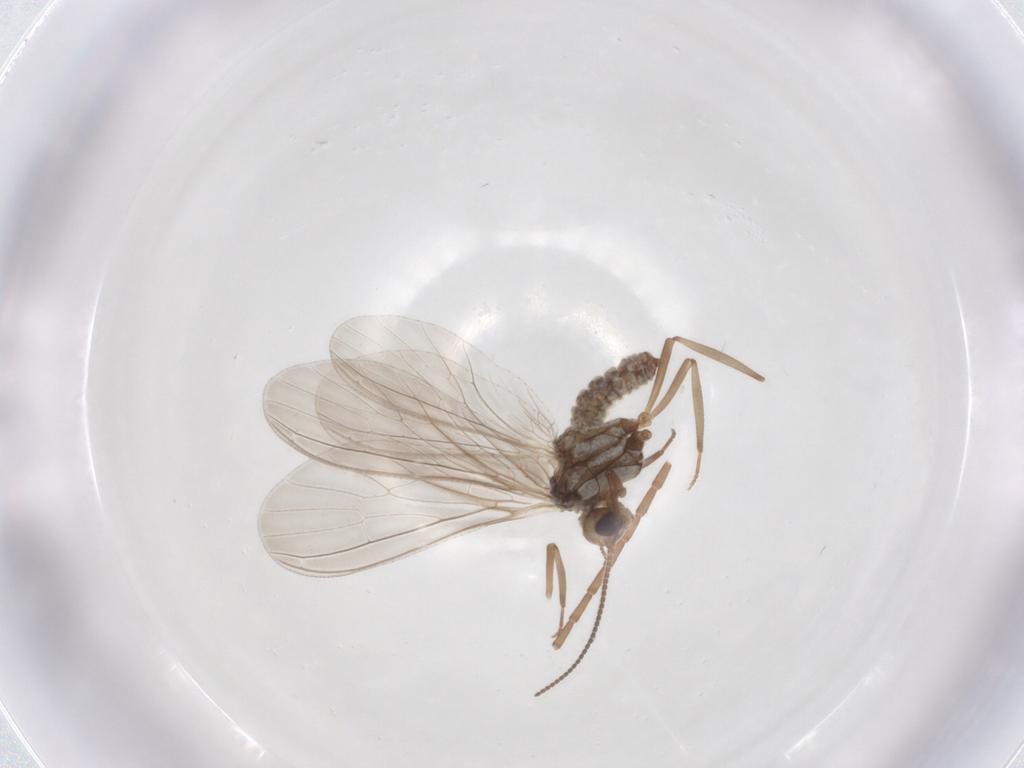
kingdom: Animalia
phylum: Arthropoda
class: Insecta
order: Neuroptera
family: Coniopterygidae
